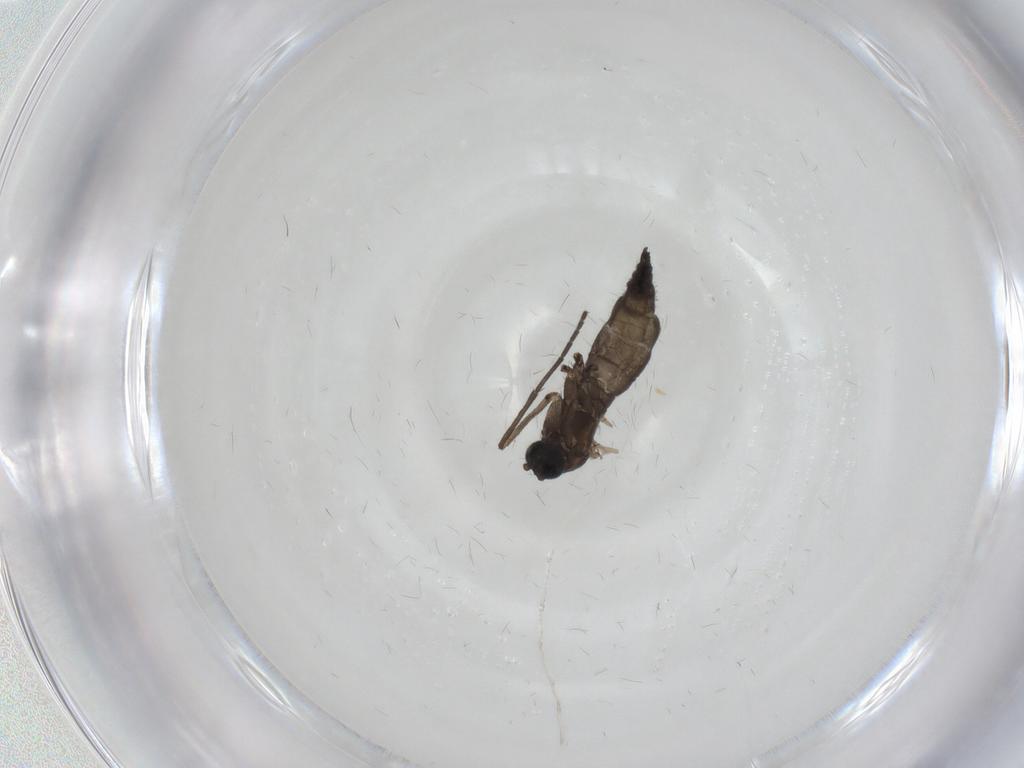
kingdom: Animalia
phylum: Arthropoda
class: Insecta
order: Diptera
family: Sciaridae
